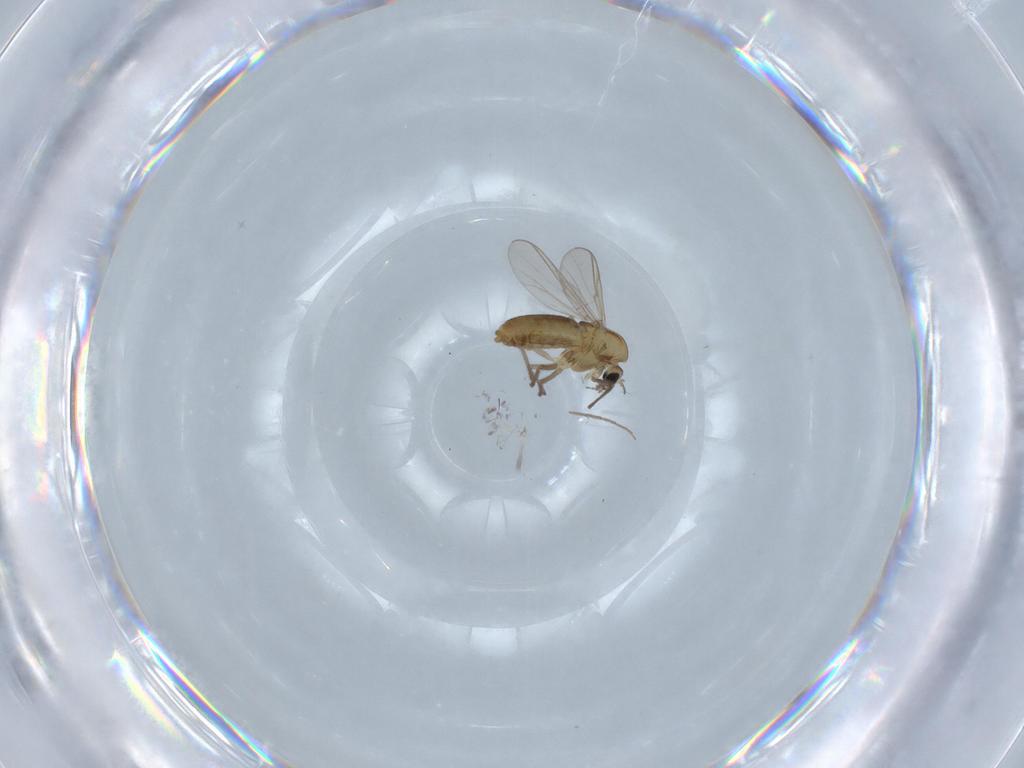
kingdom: Animalia
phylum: Arthropoda
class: Insecta
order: Diptera
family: Chironomidae
